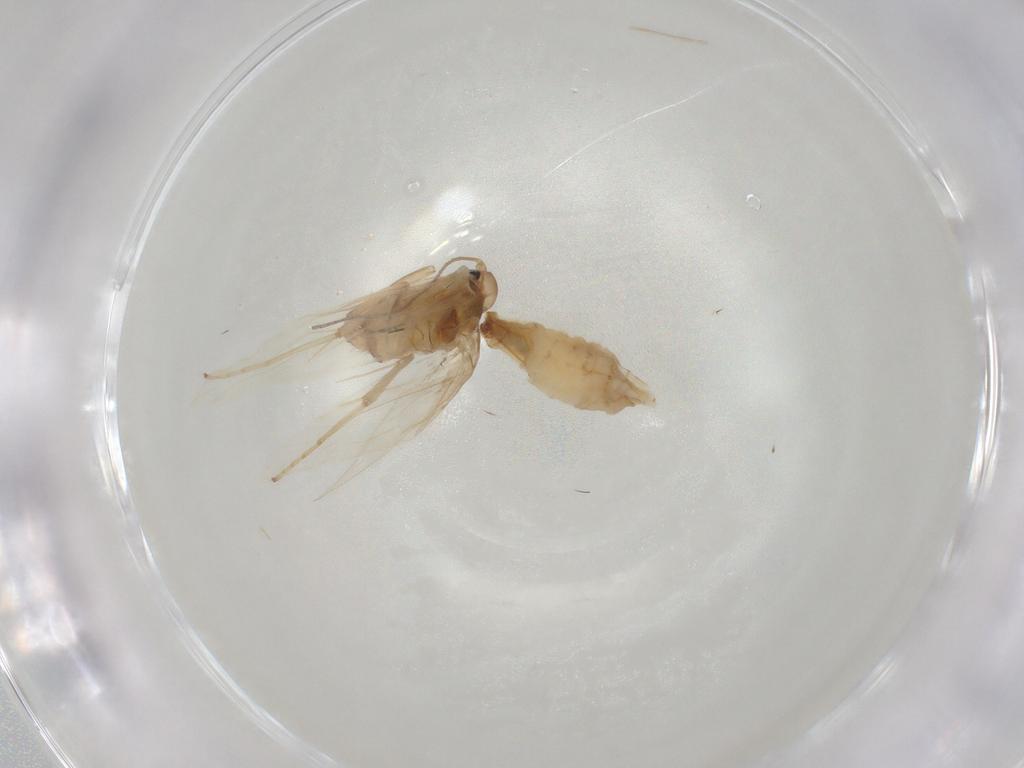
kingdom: Animalia
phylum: Arthropoda
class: Insecta
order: Lepidoptera
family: Tischeriidae
